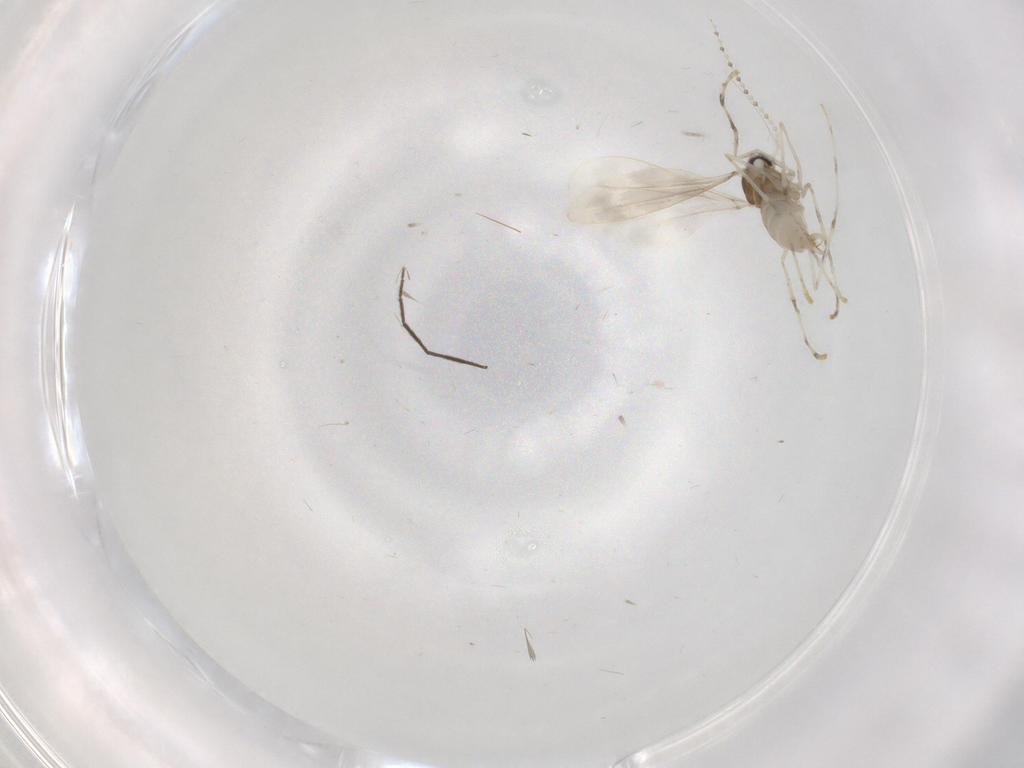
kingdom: Animalia
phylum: Arthropoda
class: Insecta
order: Diptera
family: Chironomidae
